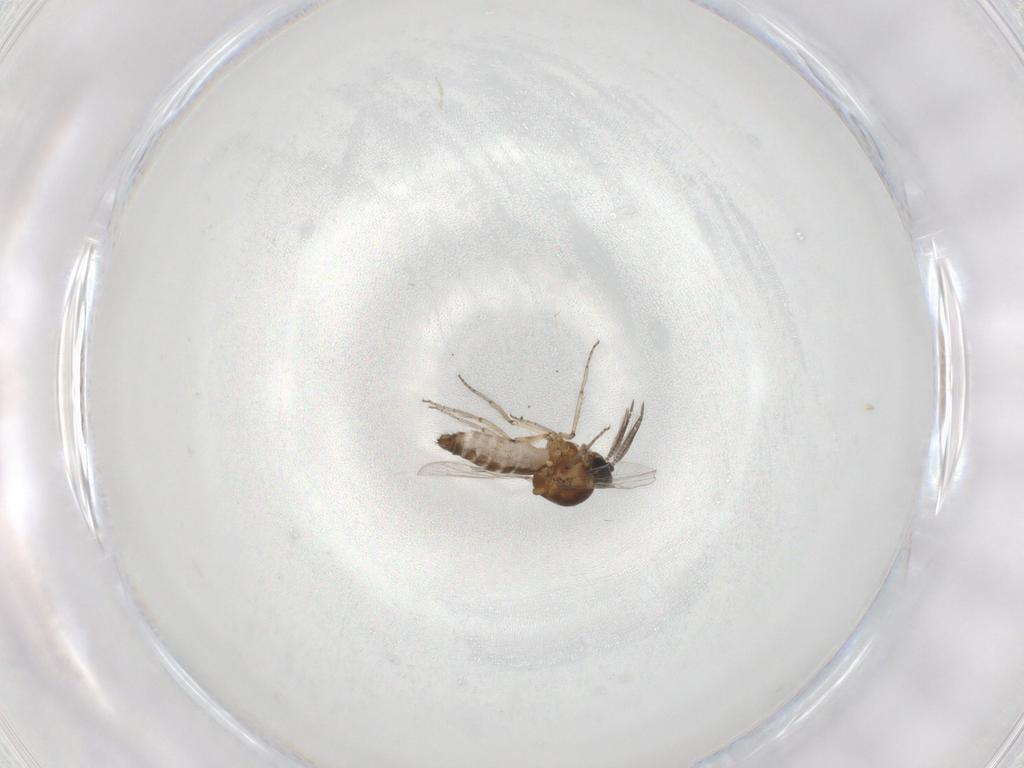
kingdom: Animalia
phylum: Arthropoda
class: Insecta
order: Diptera
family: Ceratopogonidae
